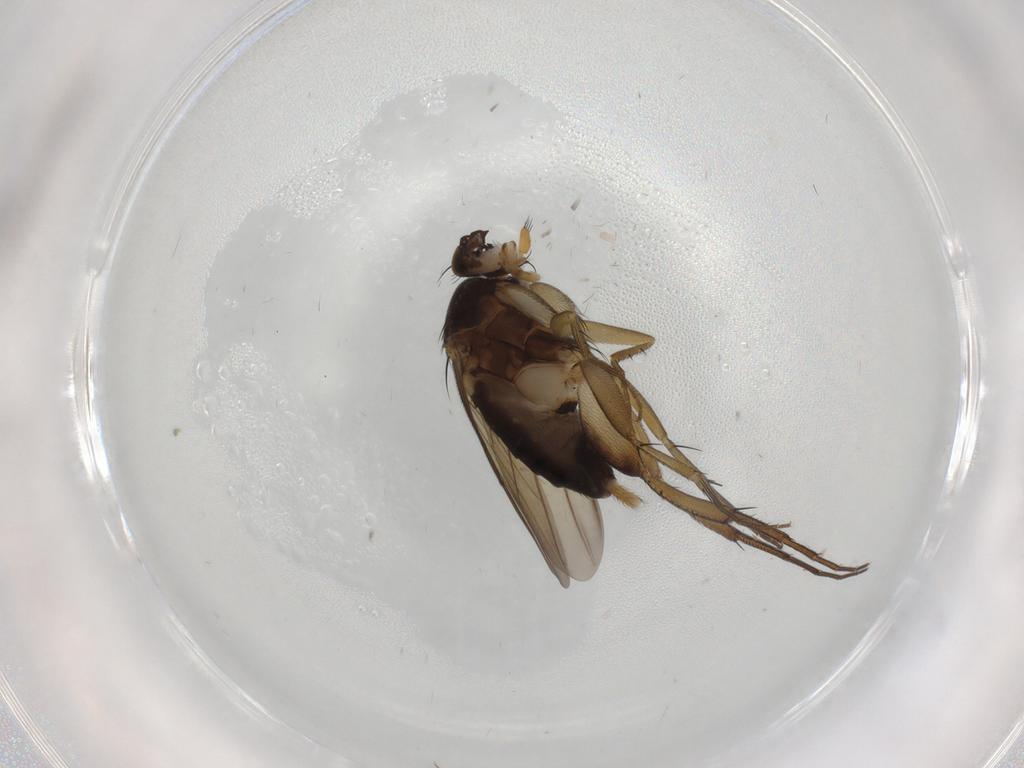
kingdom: Animalia
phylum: Arthropoda
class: Insecta
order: Diptera
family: Phoridae
